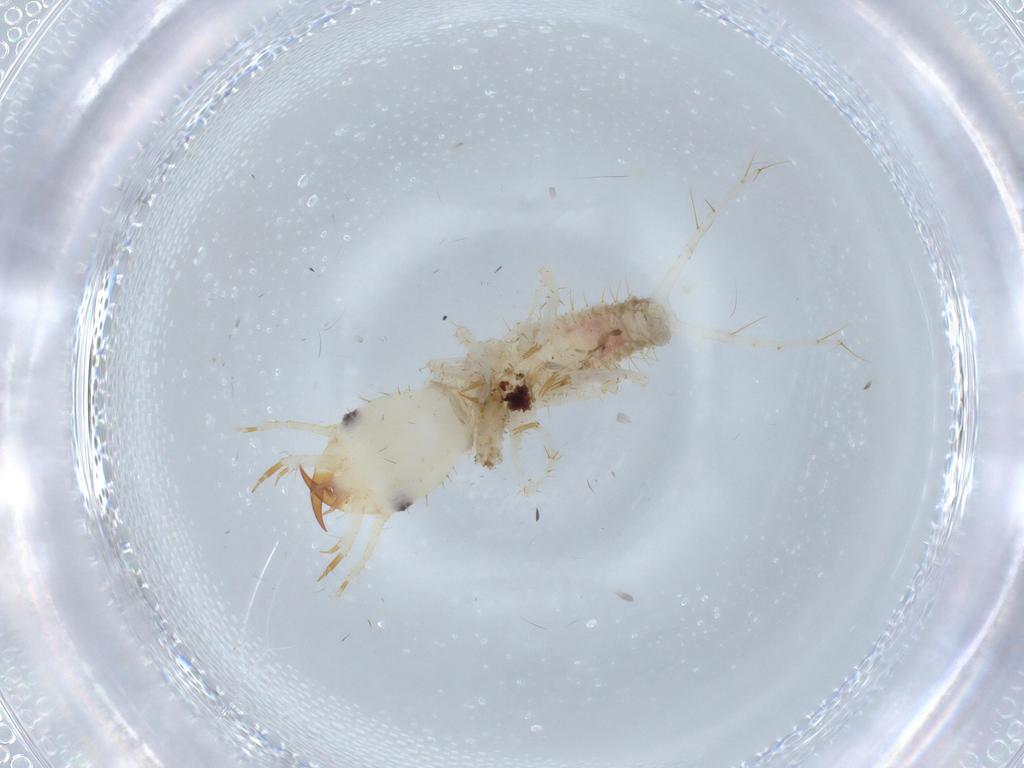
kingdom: Animalia
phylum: Arthropoda
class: Insecta
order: Coleoptera
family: Carabidae
